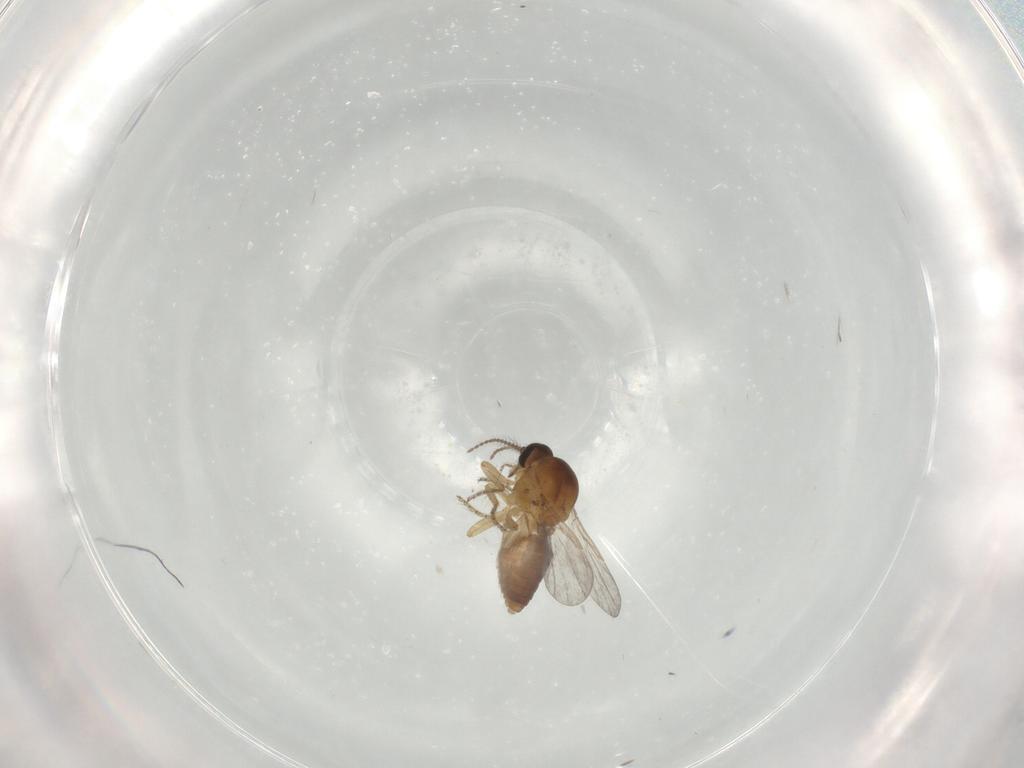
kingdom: Animalia
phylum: Arthropoda
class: Insecta
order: Diptera
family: Ceratopogonidae
